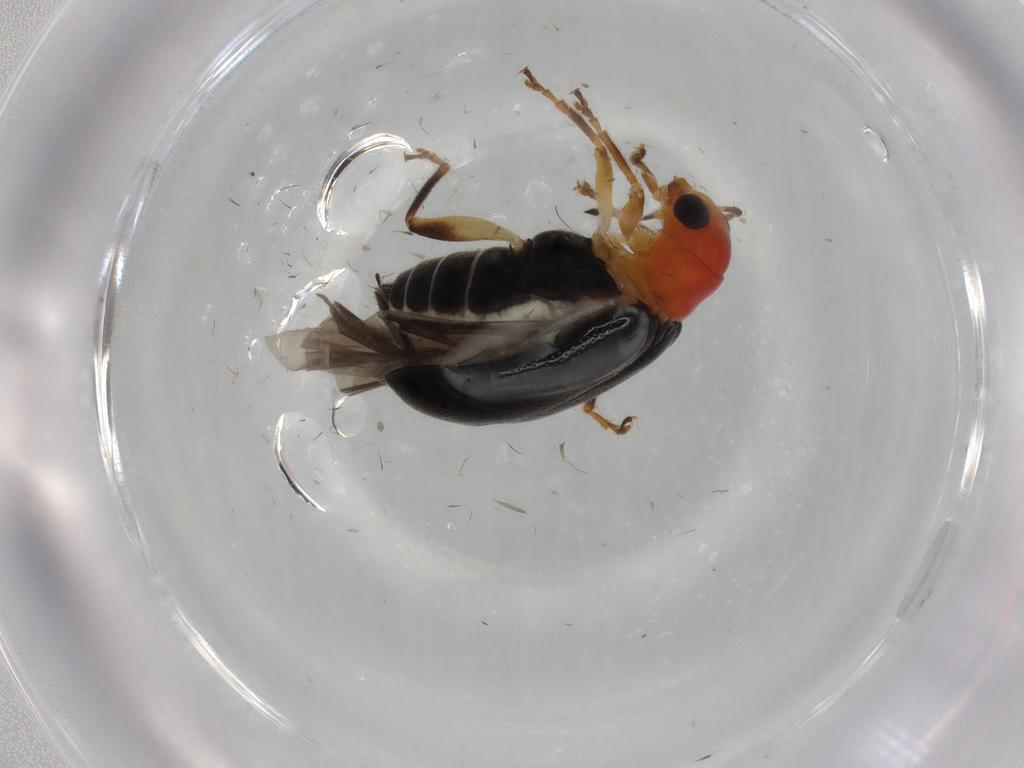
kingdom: Animalia
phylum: Arthropoda
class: Insecta
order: Coleoptera
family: Chrysomelidae
